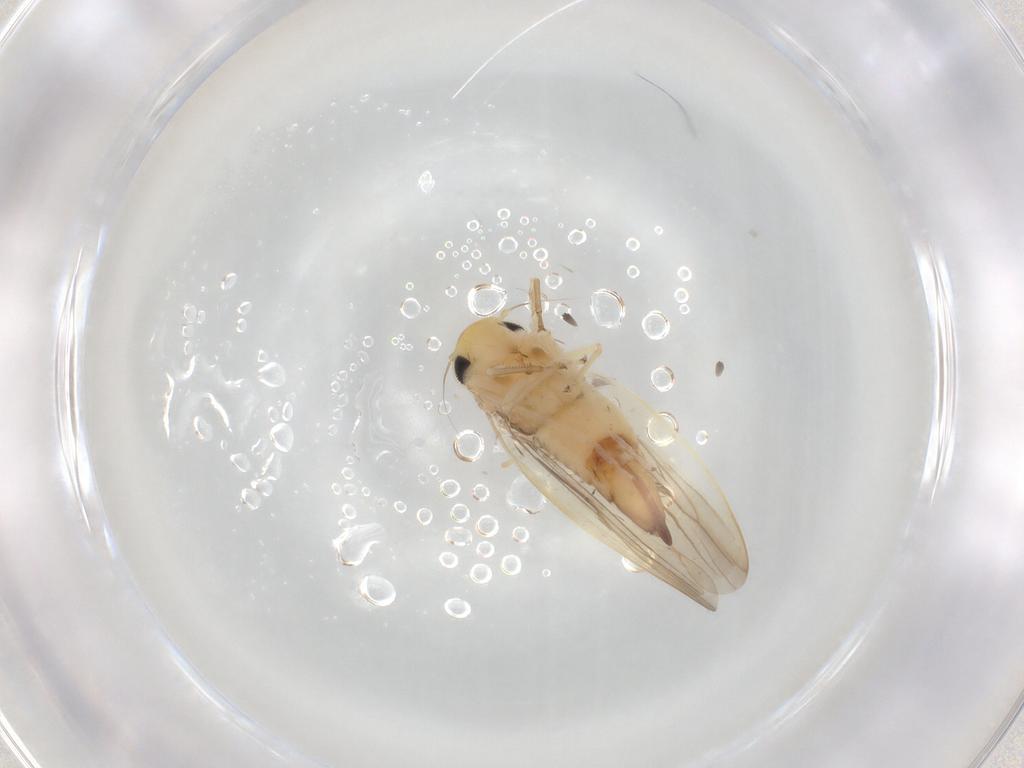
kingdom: Animalia
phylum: Arthropoda
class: Insecta
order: Hemiptera
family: Cicadellidae
